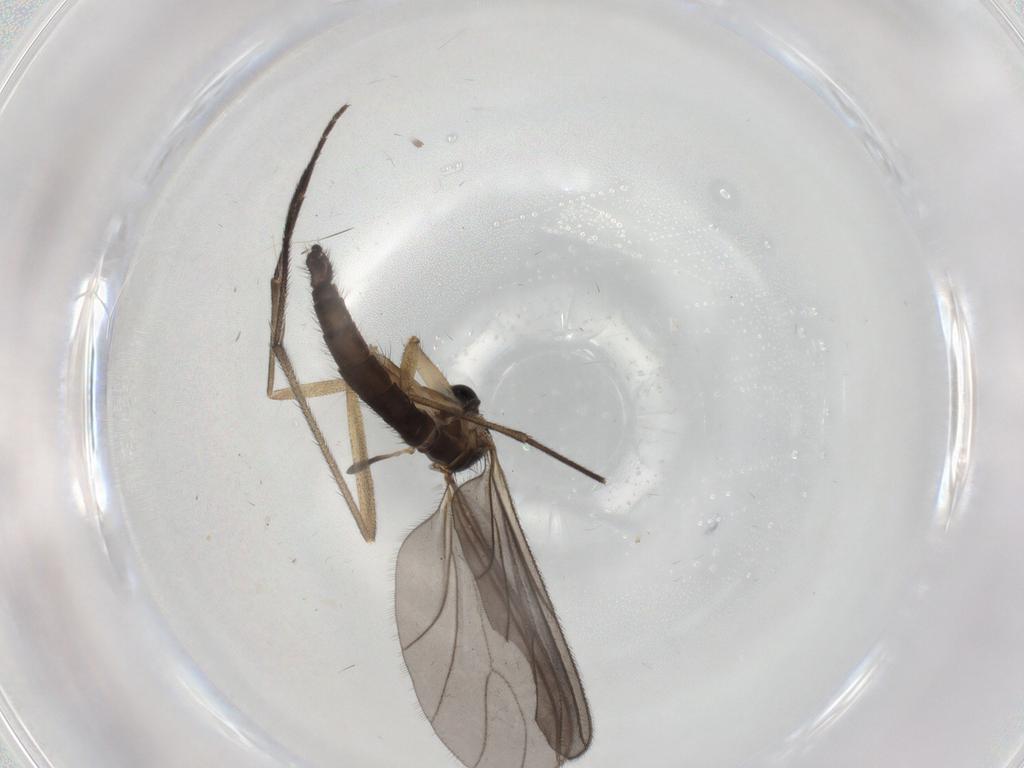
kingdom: Animalia
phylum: Arthropoda
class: Insecta
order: Diptera
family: Sciaridae
